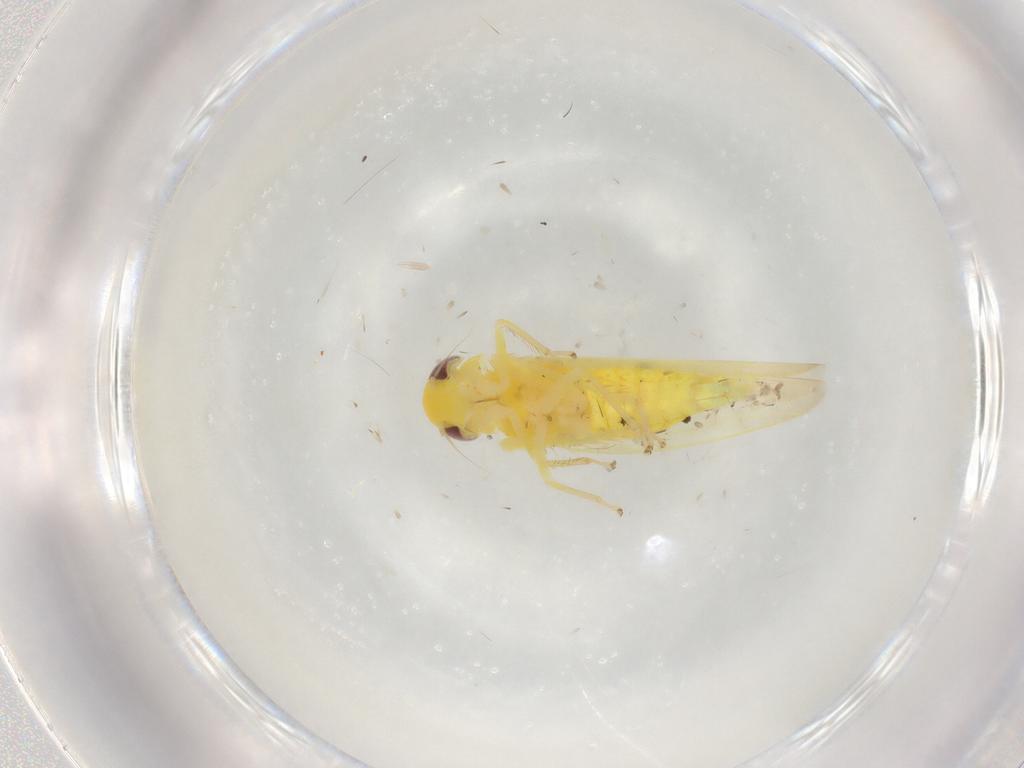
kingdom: Animalia
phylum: Arthropoda
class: Insecta
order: Hemiptera
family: Cicadellidae
